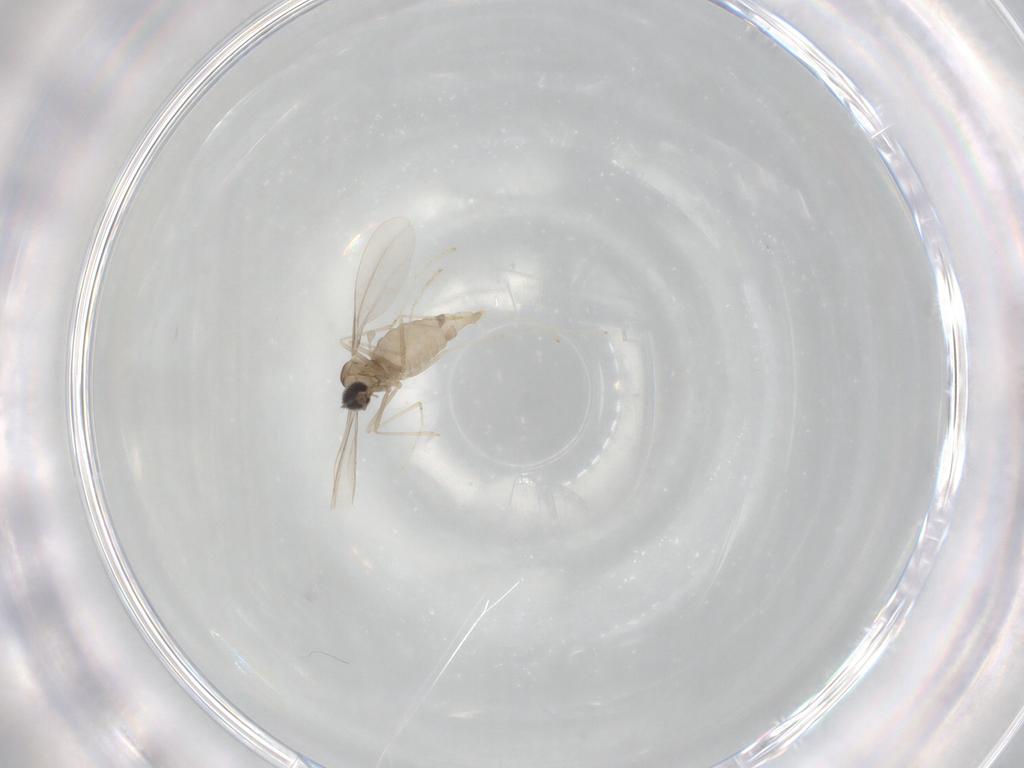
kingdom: Animalia
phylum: Arthropoda
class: Insecta
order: Diptera
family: Cecidomyiidae
